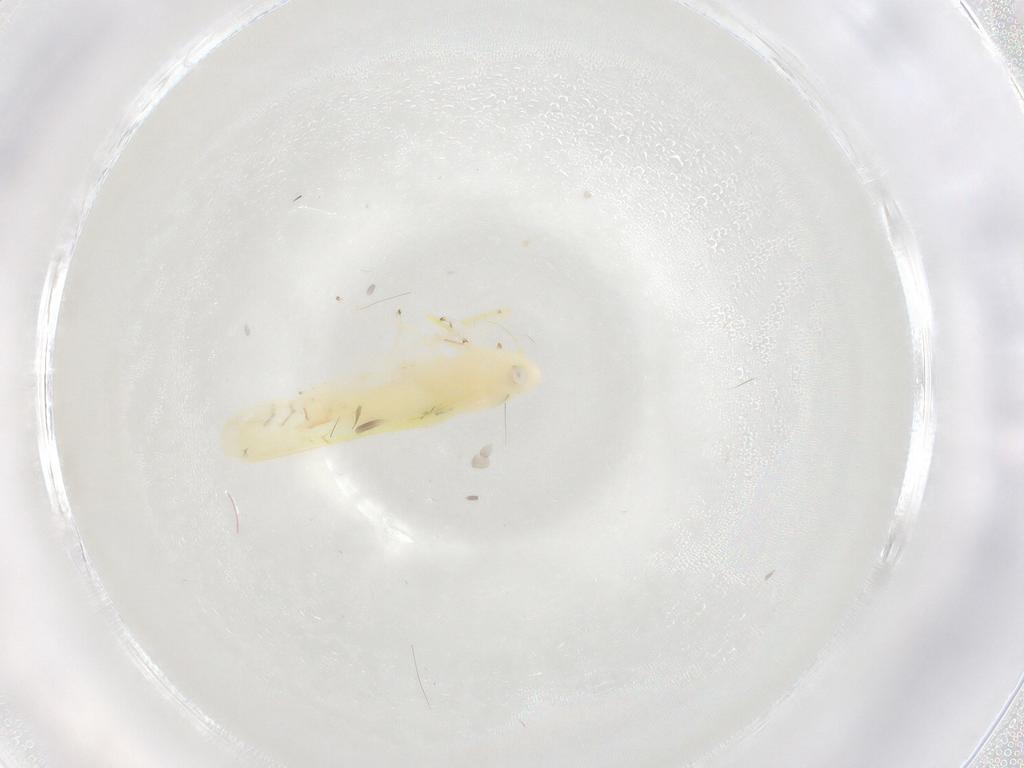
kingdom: Animalia
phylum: Arthropoda
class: Insecta
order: Hemiptera
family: Cicadellidae
